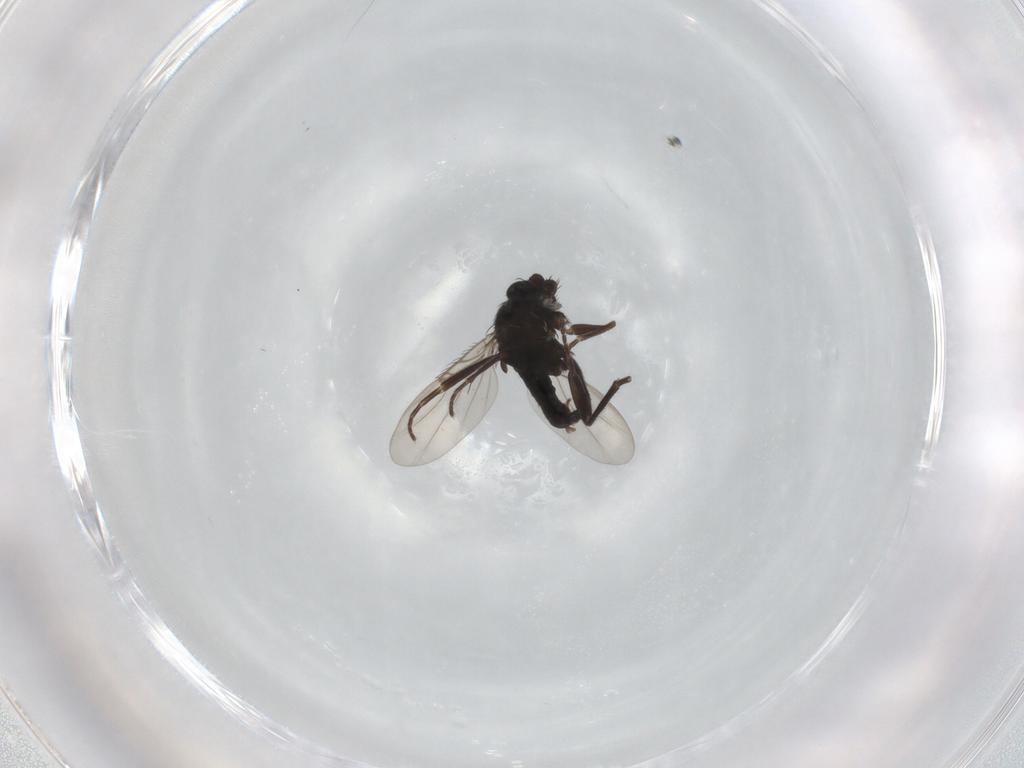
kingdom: Animalia
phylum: Arthropoda
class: Insecta
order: Diptera
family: Phoridae
